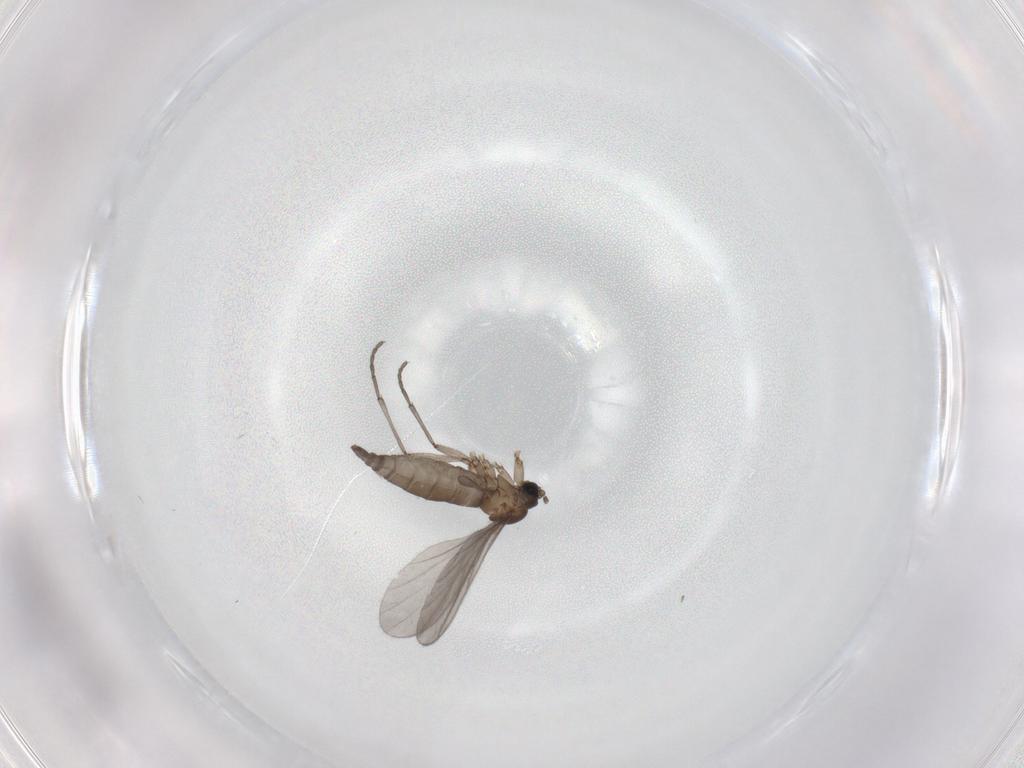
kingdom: Animalia
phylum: Arthropoda
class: Insecta
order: Diptera
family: Sciaridae
